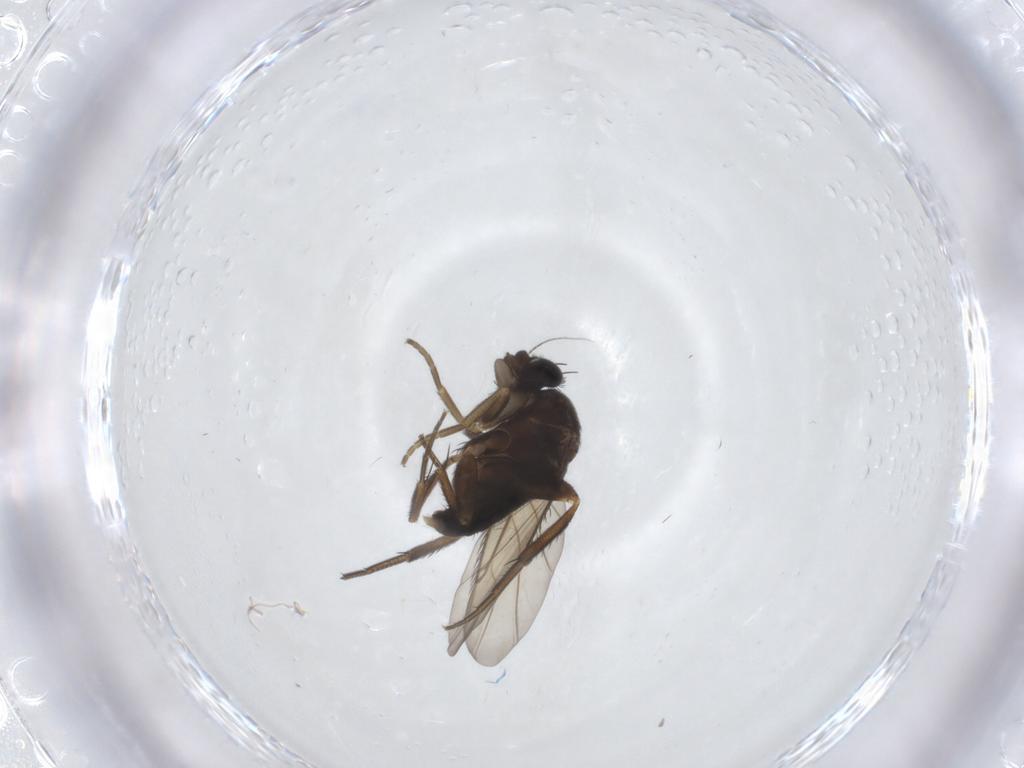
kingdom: Animalia
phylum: Arthropoda
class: Insecta
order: Diptera
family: Phoridae
